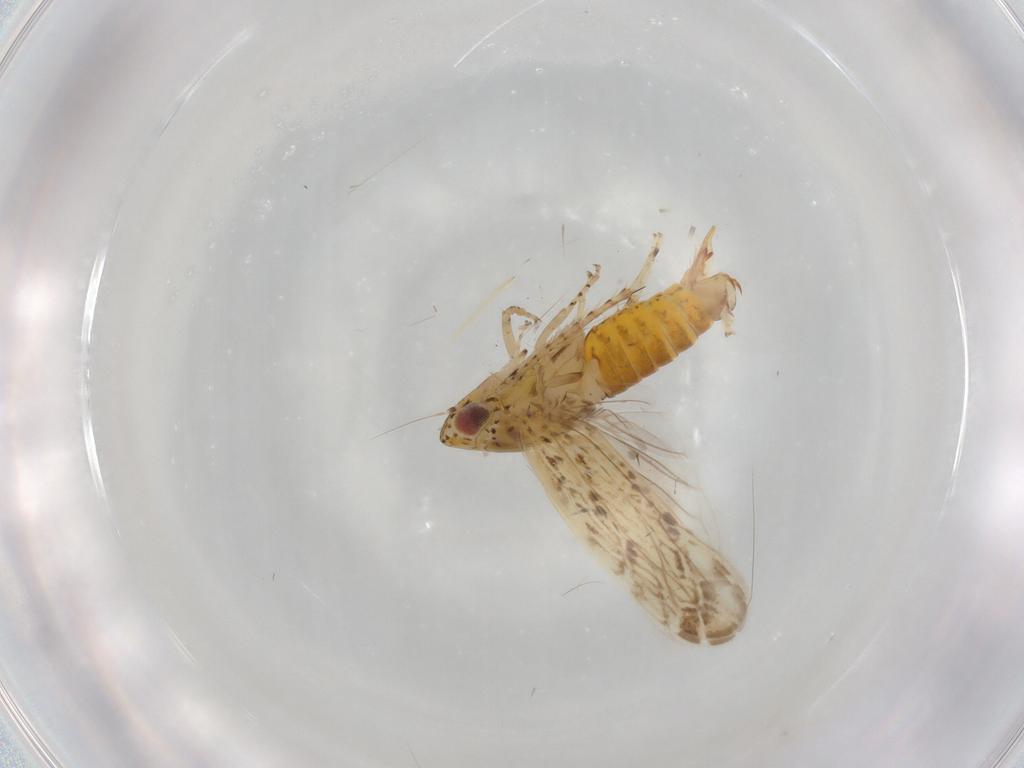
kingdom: Animalia
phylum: Arthropoda
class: Insecta
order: Hemiptera
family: Cicadellidae
